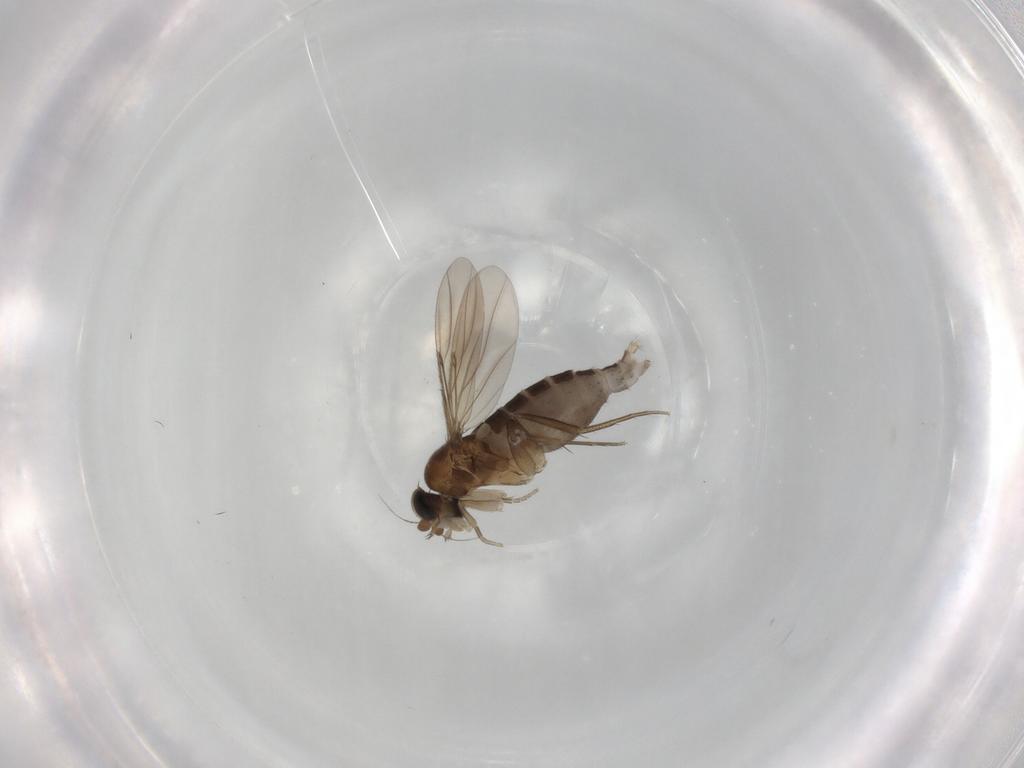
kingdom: Animalia
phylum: Arthropoda
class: Insecta
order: Diptera
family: Phoridae
